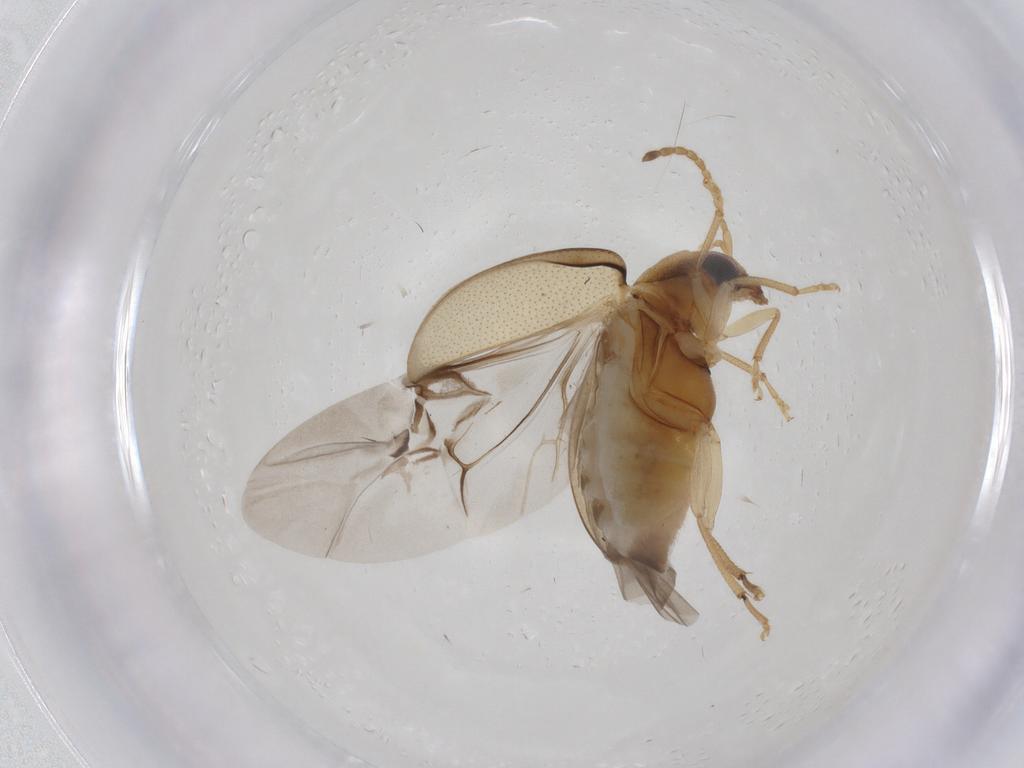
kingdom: Animalia
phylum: Arthropoda
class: Insecta
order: Coleoptera
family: Chrysomelidae
